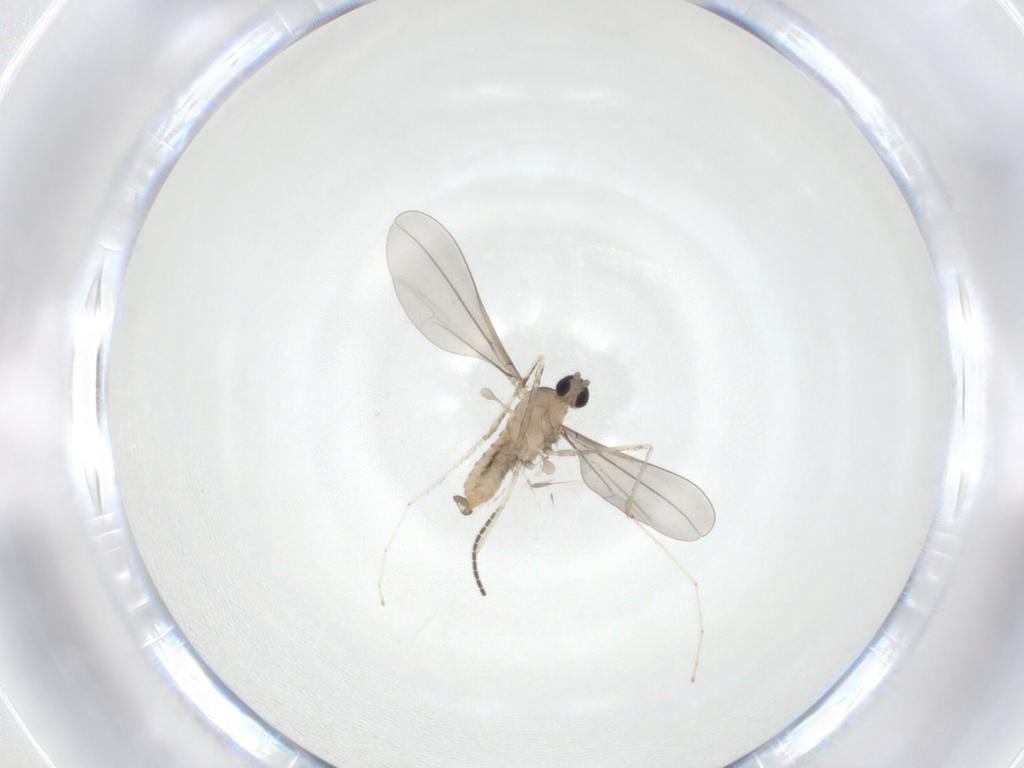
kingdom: Animalia
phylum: Arthropoda
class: Insecta
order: Diptera
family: Cecidomyiidae
